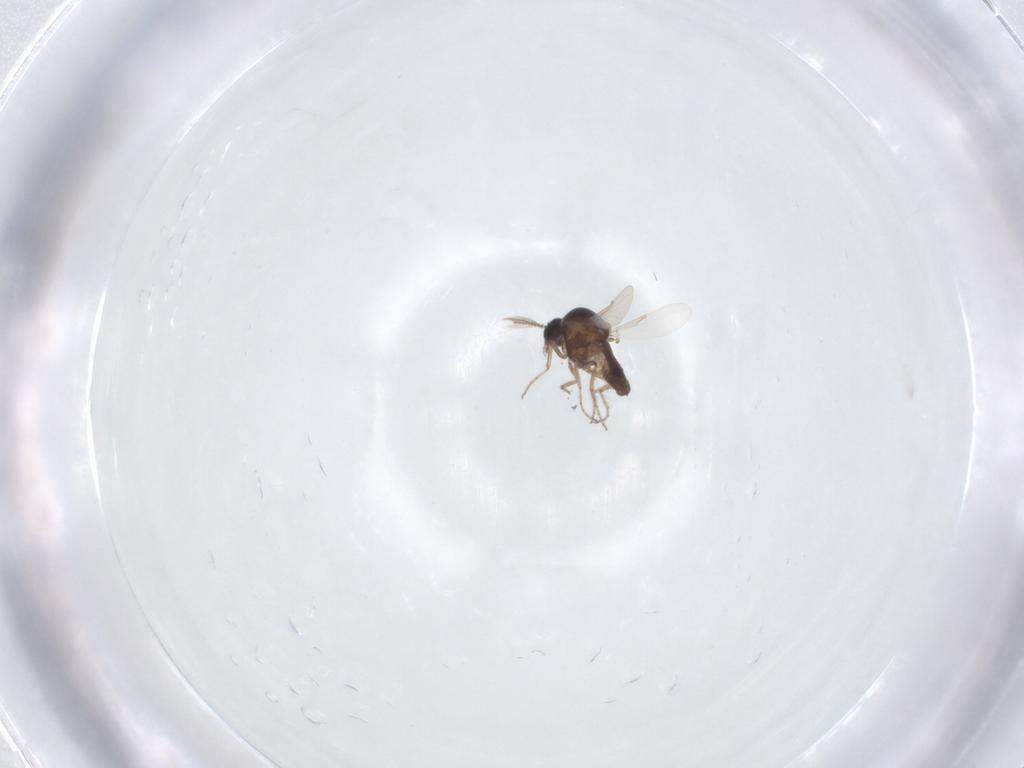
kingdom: Animalia
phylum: Arthropoda
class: Insecta
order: Diptera
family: Ceratopogonidae
